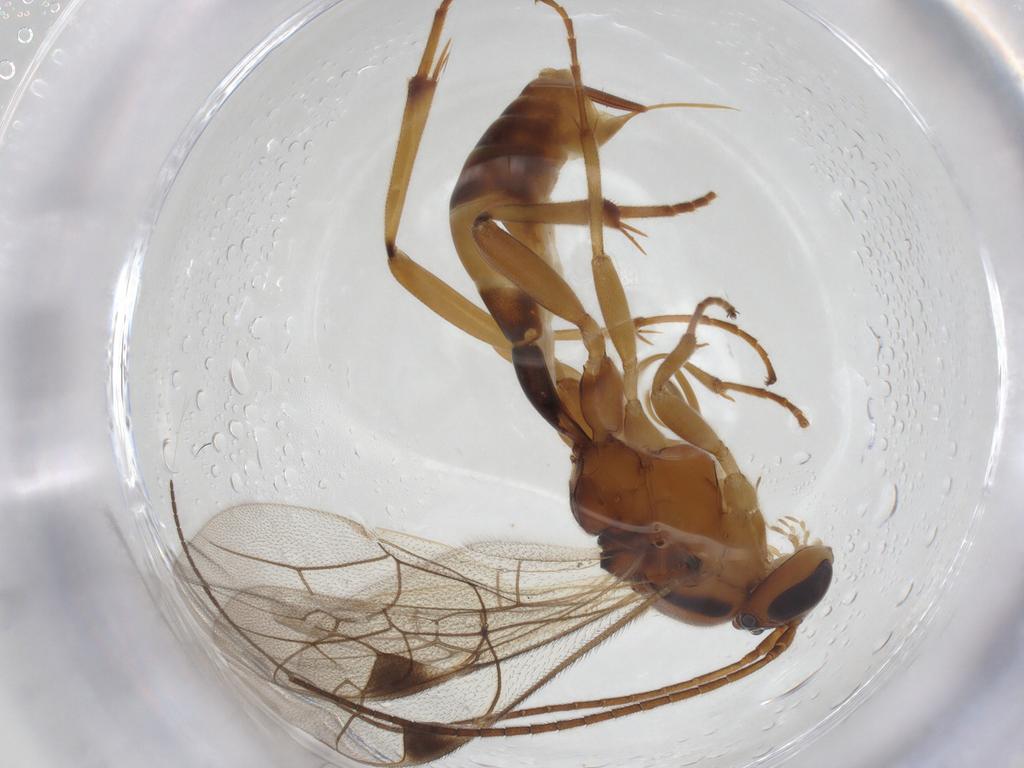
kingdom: Animalia
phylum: Arthropoda
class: Insecta
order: Hymenoptera
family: Ichneumonidae
